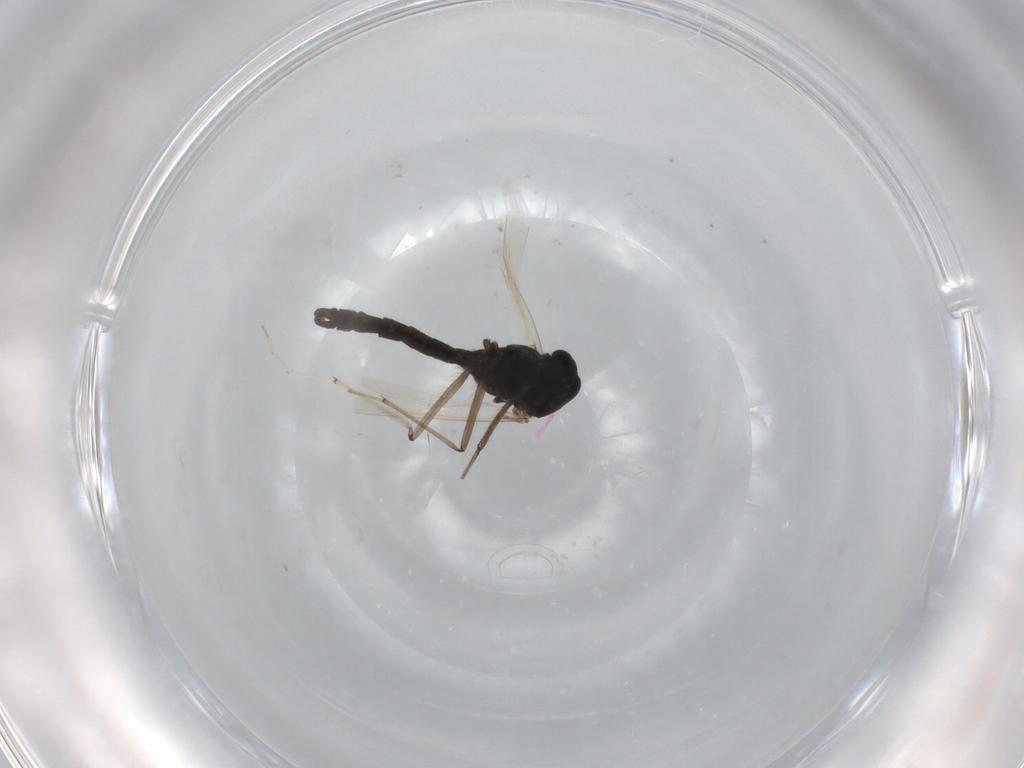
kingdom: Animalia
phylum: Arthropoda
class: Insecta
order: Diptera
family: Chironomidae
